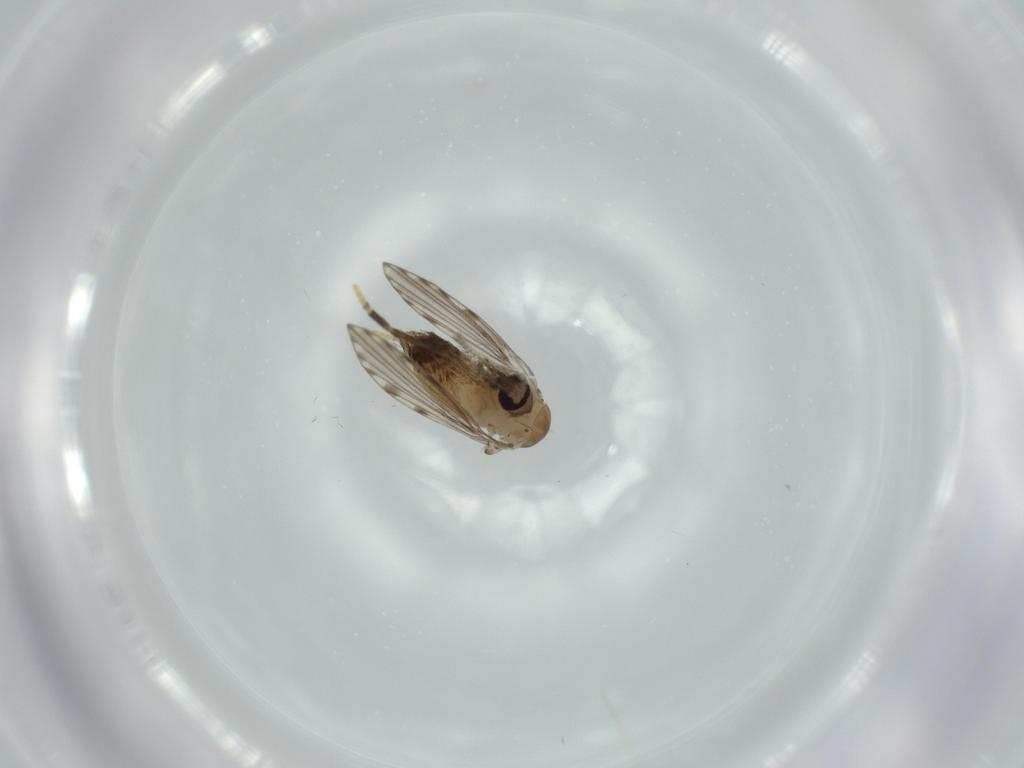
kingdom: Animalia
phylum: Arthropoda
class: Insecta
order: Diptera
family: Psychodidae
